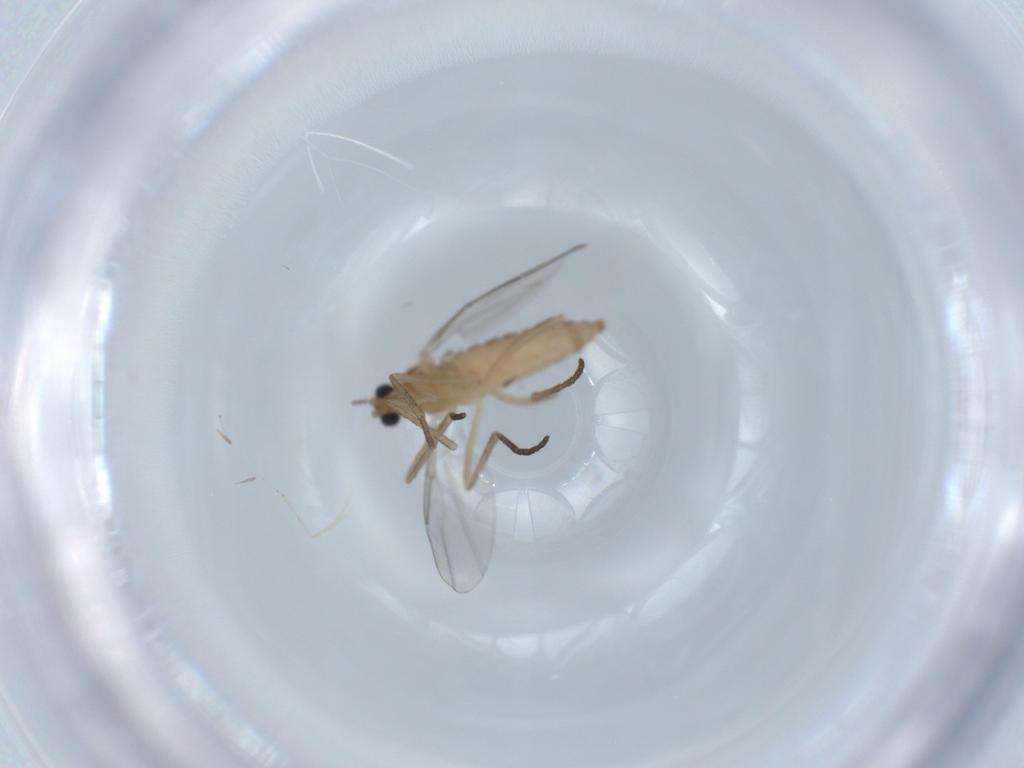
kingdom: Animalia
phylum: Arthropoda
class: Insecta
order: Diptera
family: Cecidomyiidae
